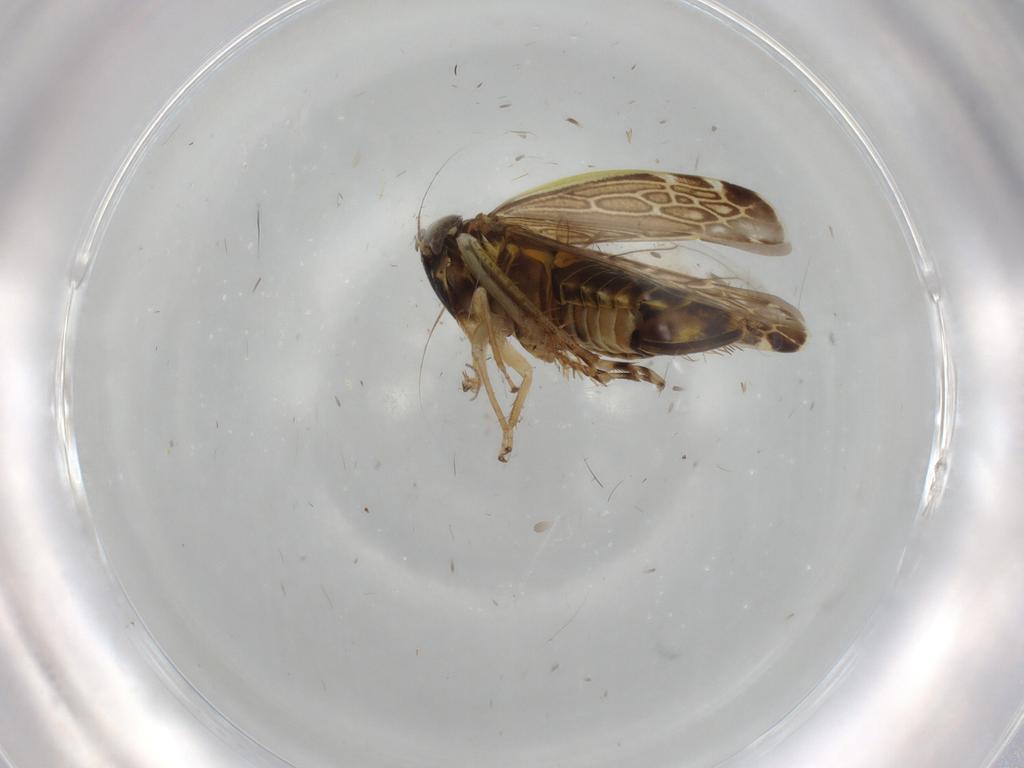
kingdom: Animalia
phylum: Arthropoda
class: Insecta
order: Hemiptera
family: Cicadellidae
